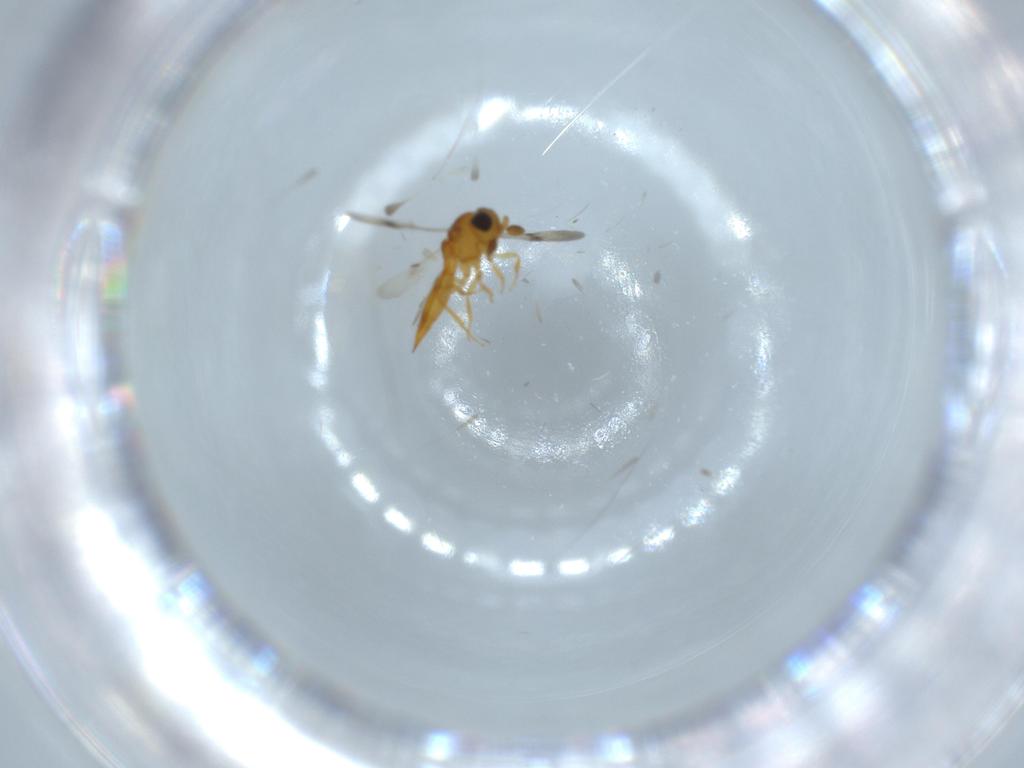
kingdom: Animalia
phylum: Arthropoda
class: Insecta
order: Hymenoptera
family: Scelionidae
